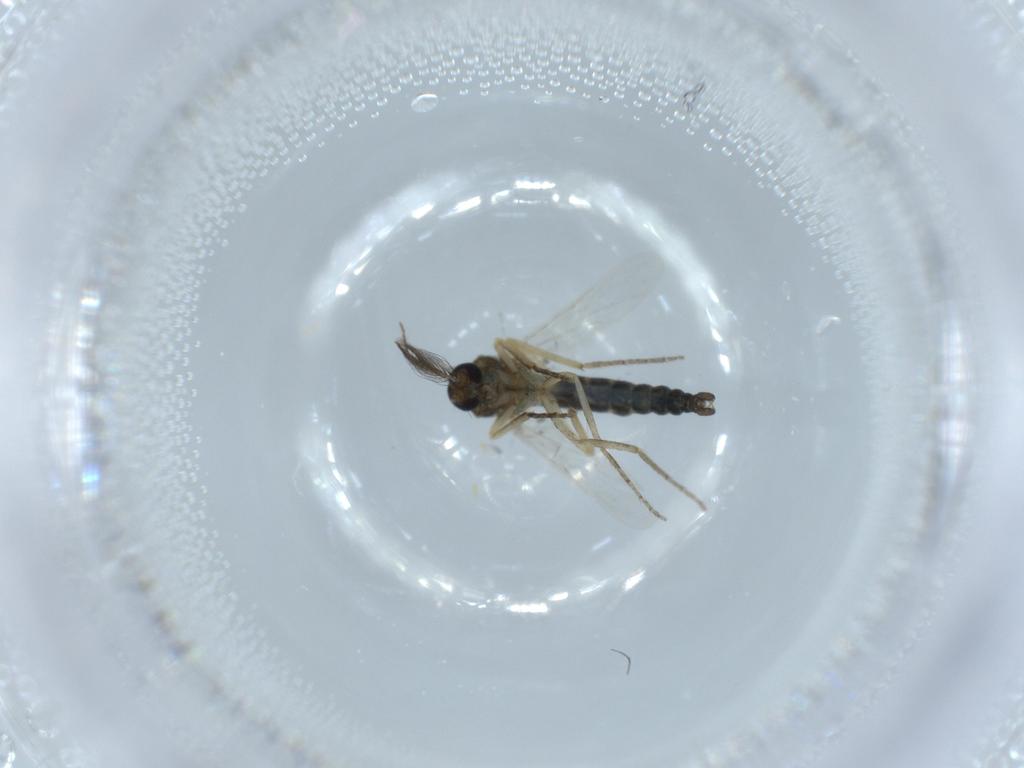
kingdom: Animalia
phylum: Arthropoda
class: Insecta
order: Diptera
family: Ceratopogonidae
